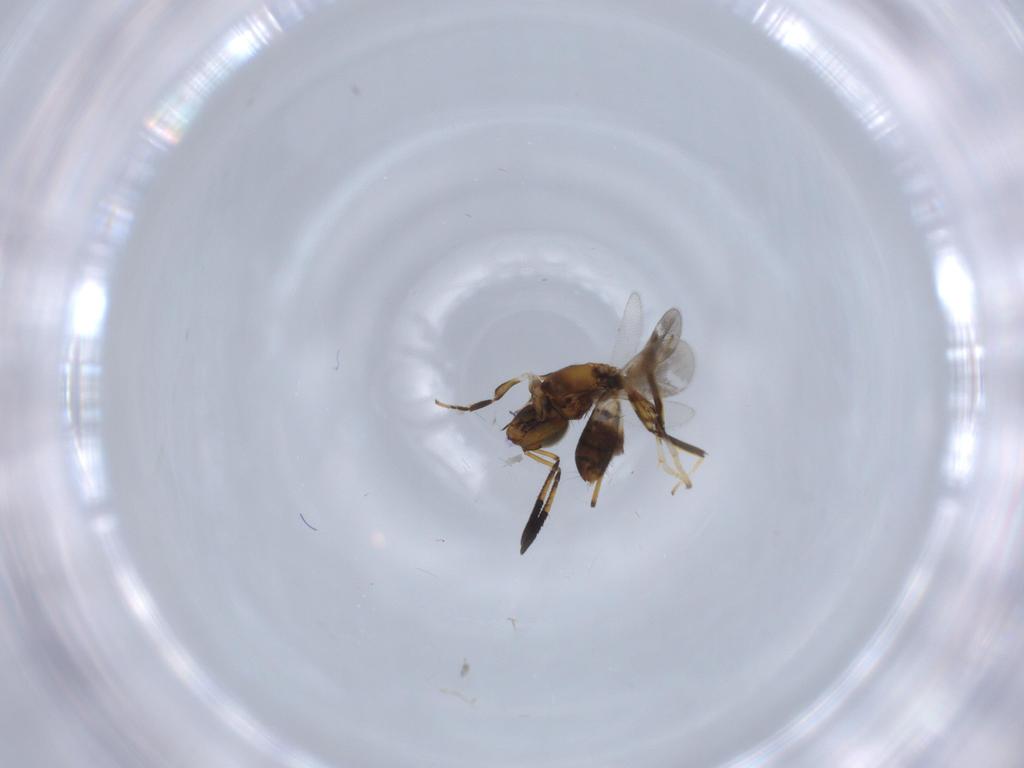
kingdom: Animalia
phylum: Arthropoda
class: Insecta
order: Hymenoptera
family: Platygastridae
